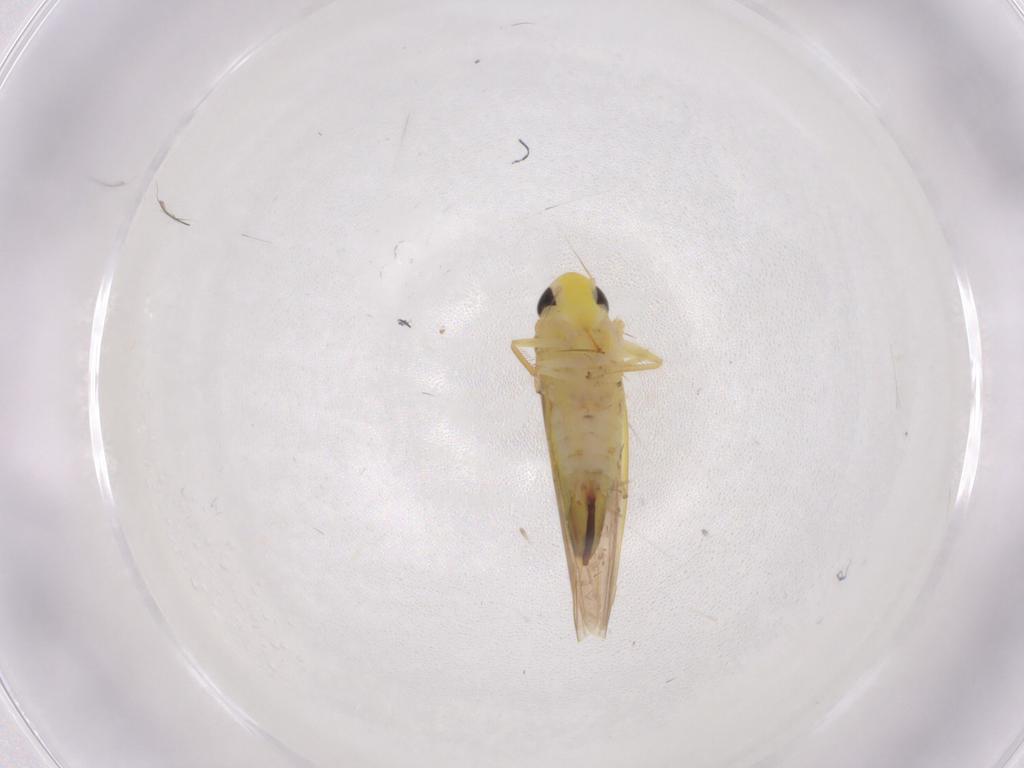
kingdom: Animalia
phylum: Arthropoda
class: Insecta
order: Hemiptera
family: Cicadellidae
